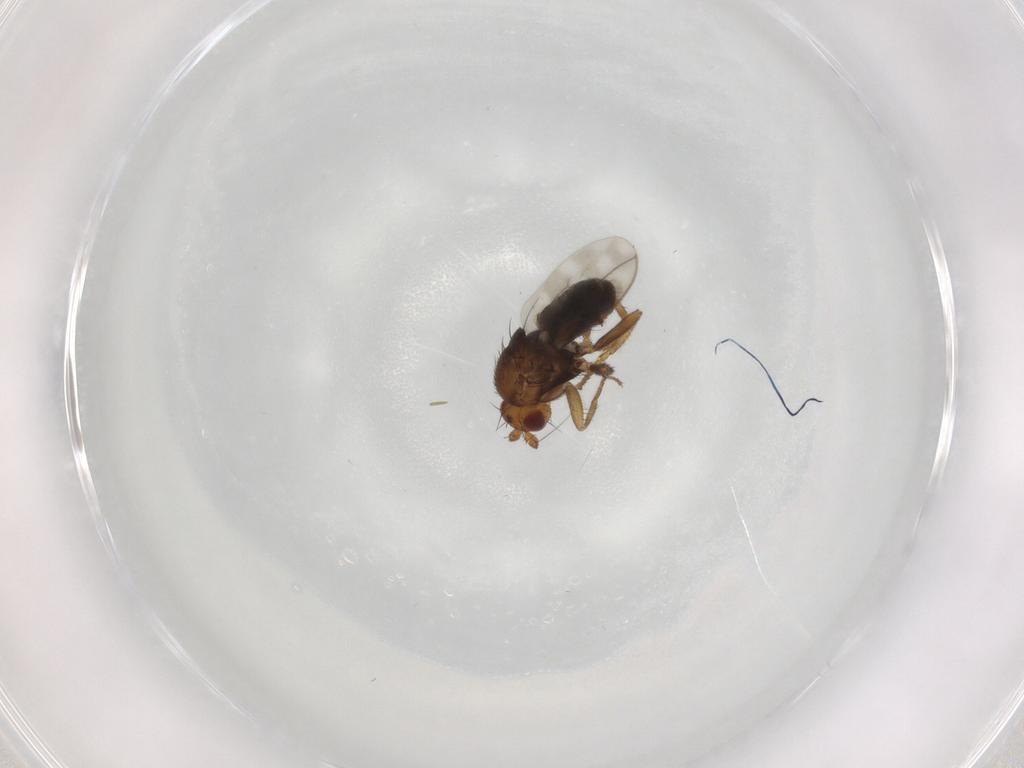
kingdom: Animalia
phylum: Arthropoda
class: Insecta
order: Diptera
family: Sphaeroceridae
